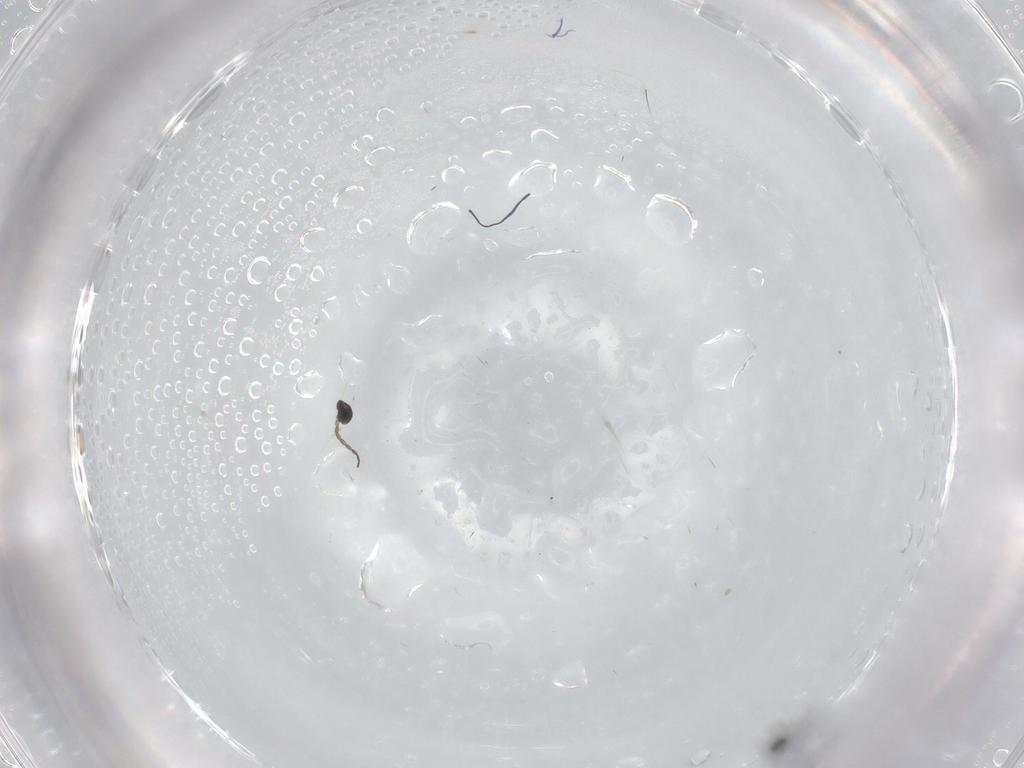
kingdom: Animalia
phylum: Arthropoda
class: Insecta
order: Hymenoptera
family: Mymaridae
